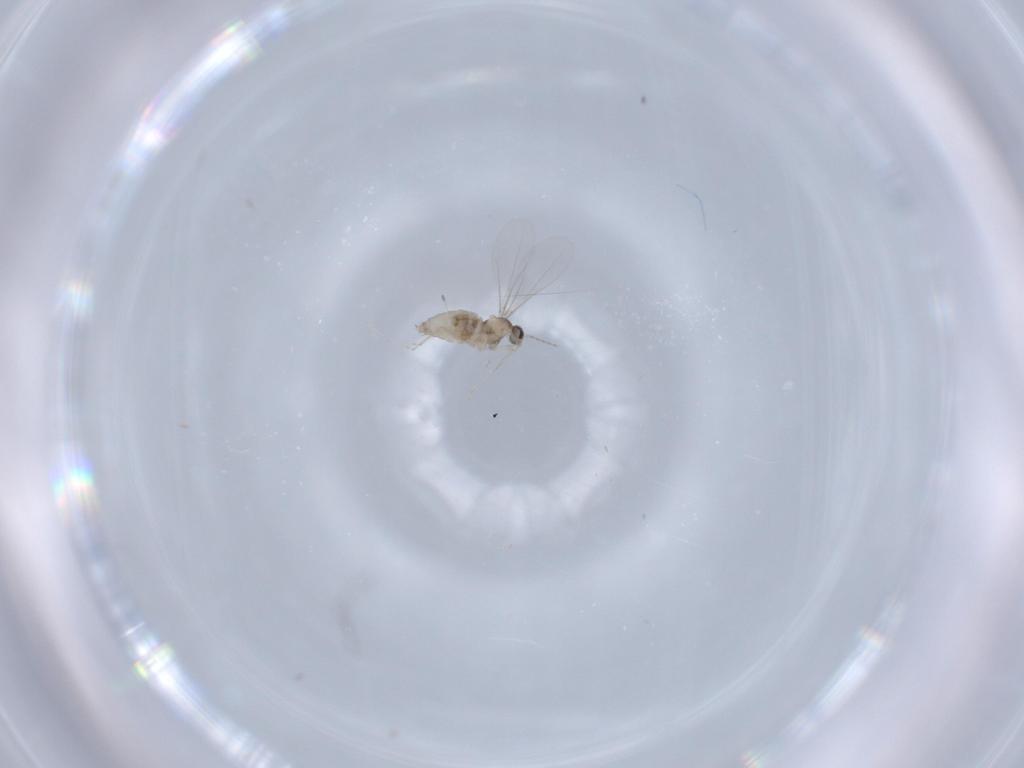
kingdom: Animalia
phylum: Arthropoda
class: Insecta
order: Diptera
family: Cecidomyiidae
